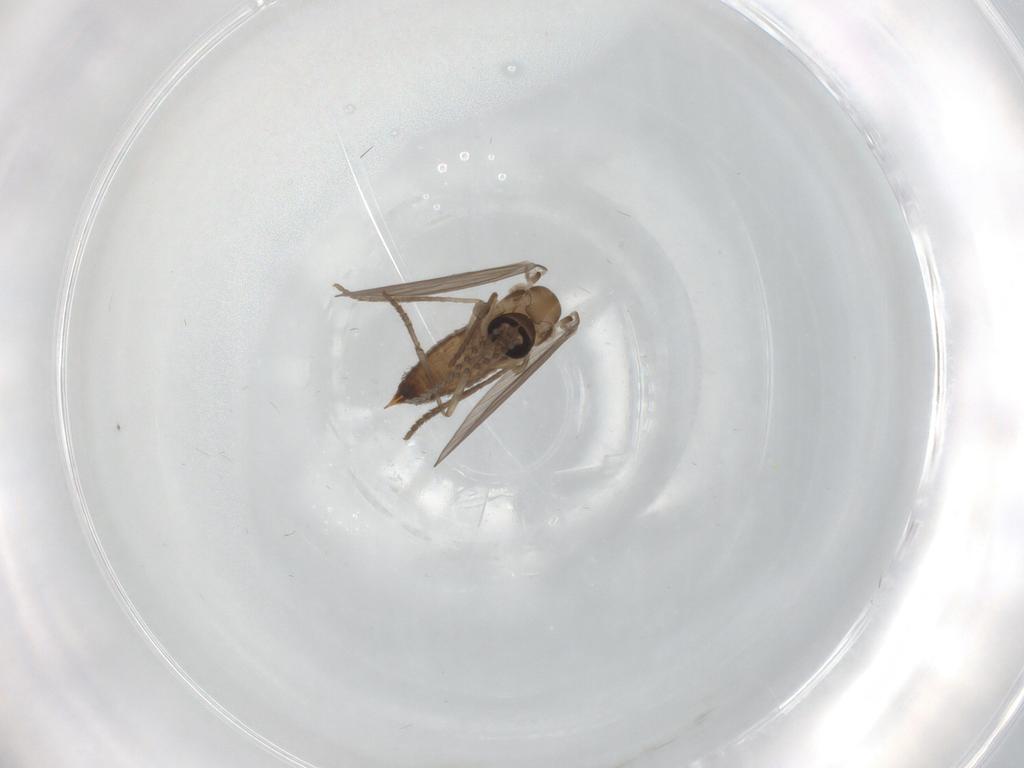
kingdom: Animalia
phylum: Arthropoda
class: Insecta
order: Diptera
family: Psychodidae
